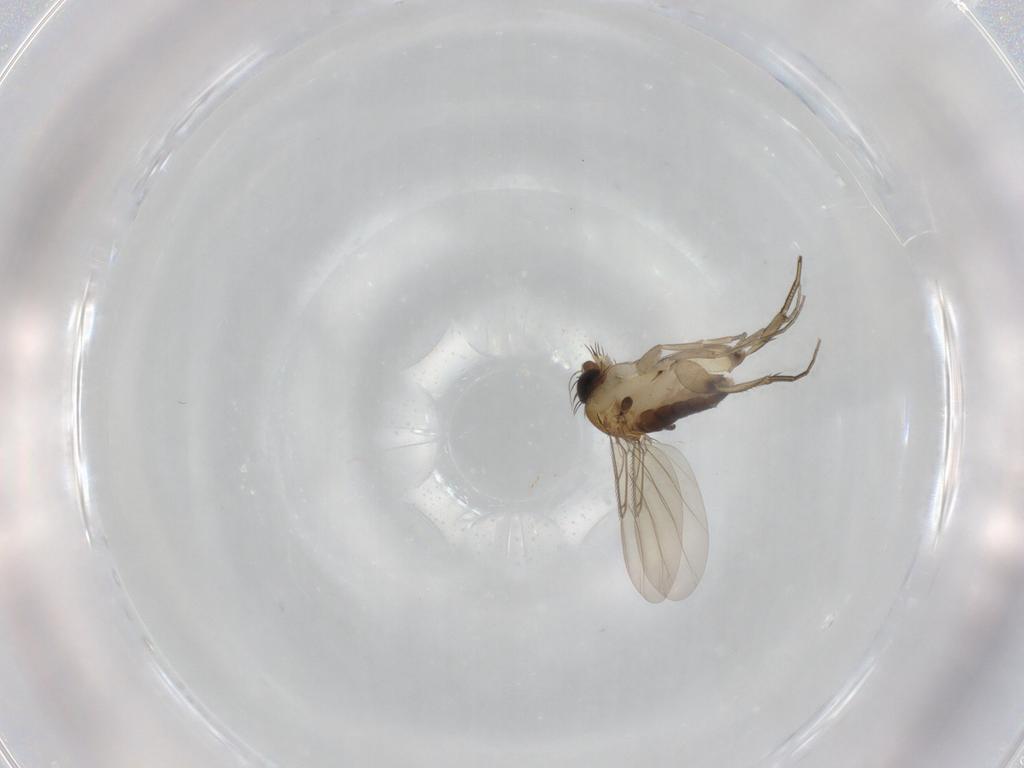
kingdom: Animalia
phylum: Arthropoda
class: Insecta
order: Diptera
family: Phoridae
